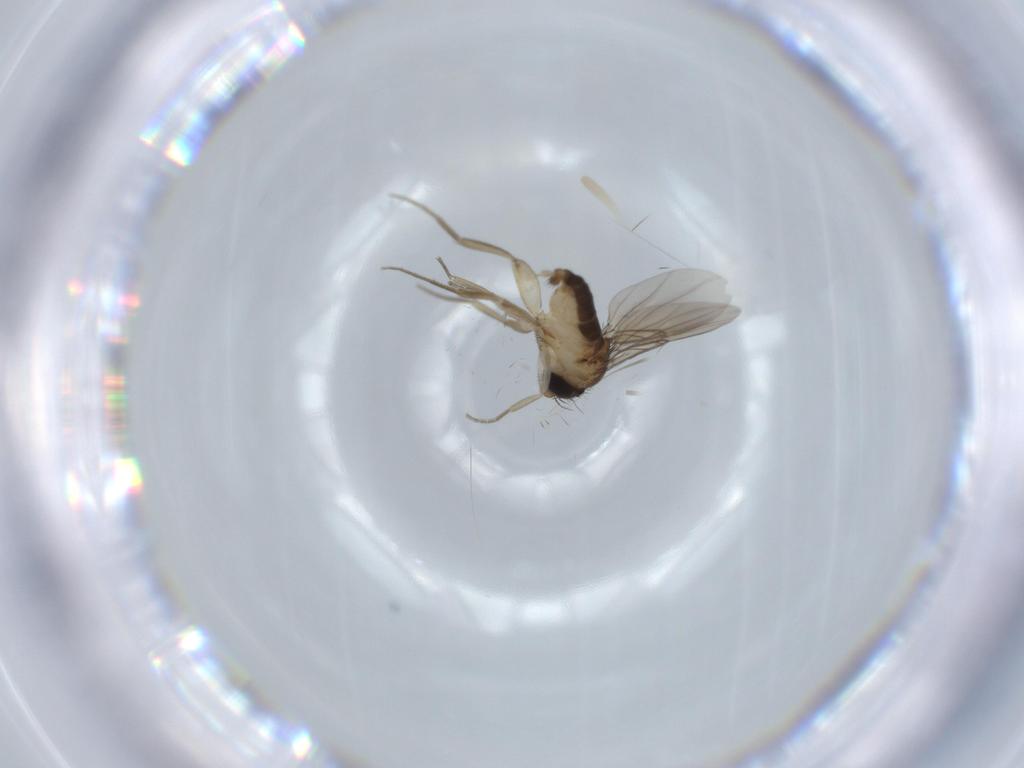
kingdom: Animalia
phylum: Arthropoda
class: Insecta
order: Diptera
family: Phoridae
